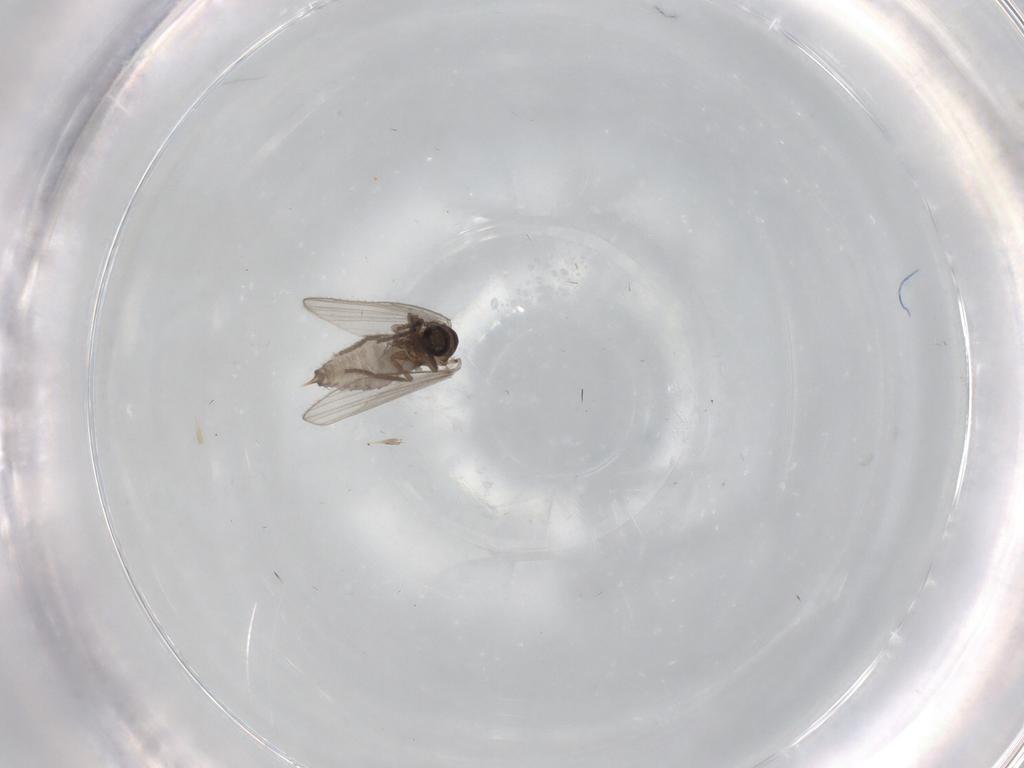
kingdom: Animalia
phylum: Arthropoda
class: Insecta
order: Diptera
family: Psychodidae
